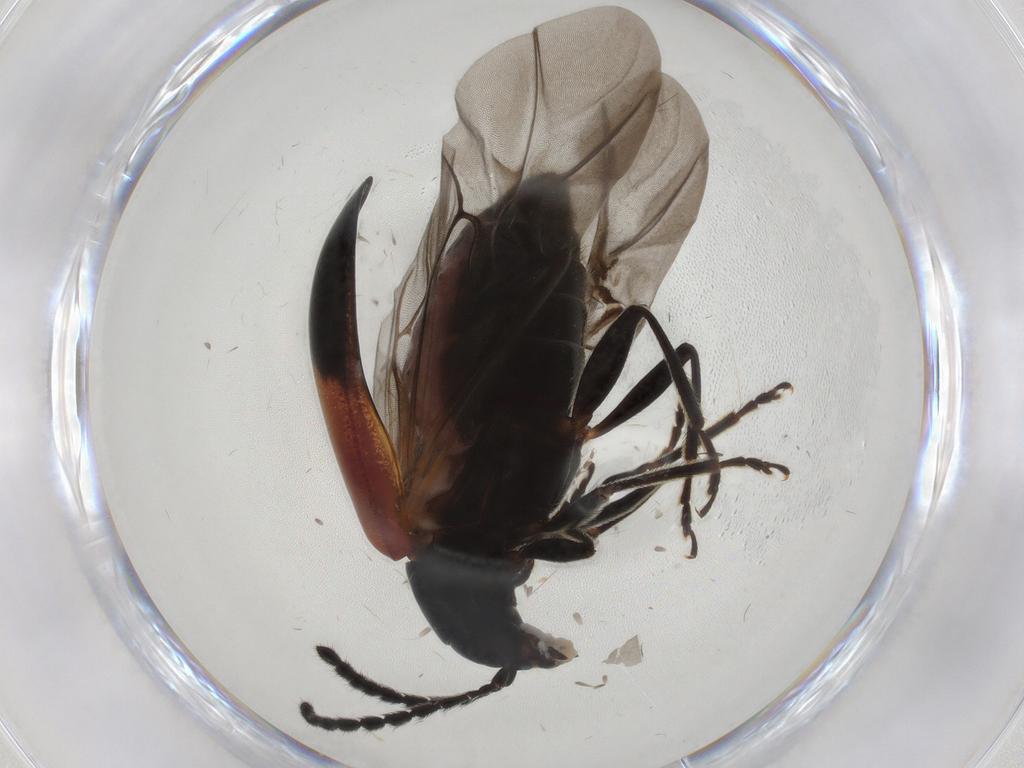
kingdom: Animalia
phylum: Arthropoda
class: Insecta
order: Coleoptera
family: Chrysomelidae
